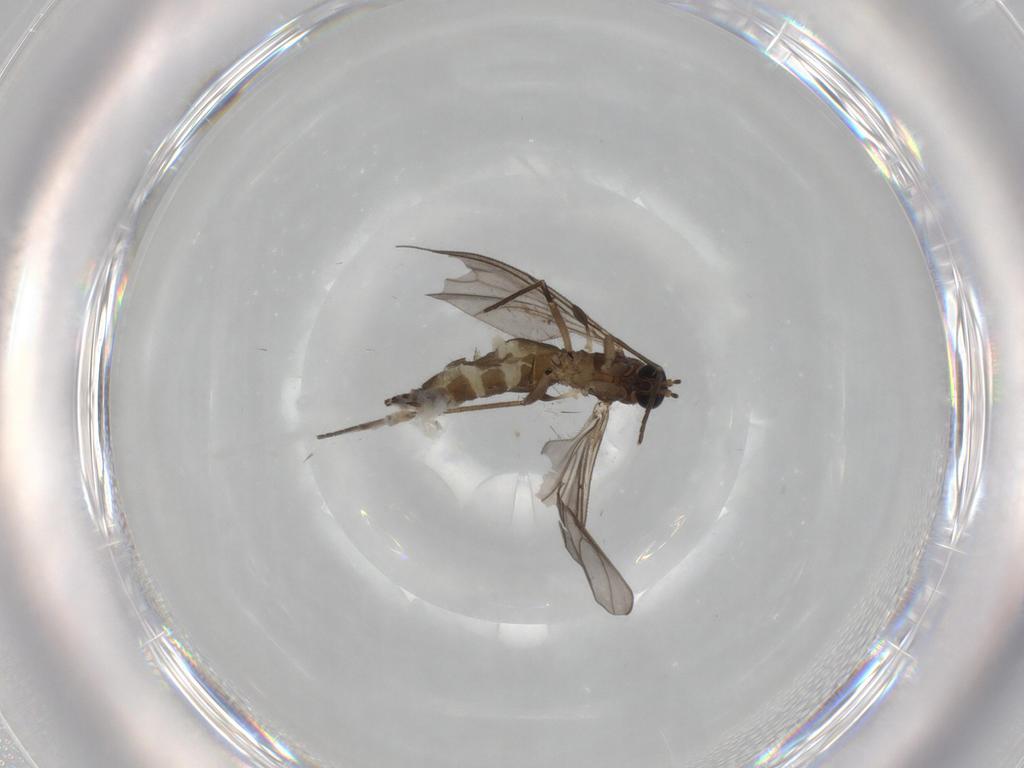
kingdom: Animalia
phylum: Arthropoda
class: Insecta
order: Diptera
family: Sciaridae
